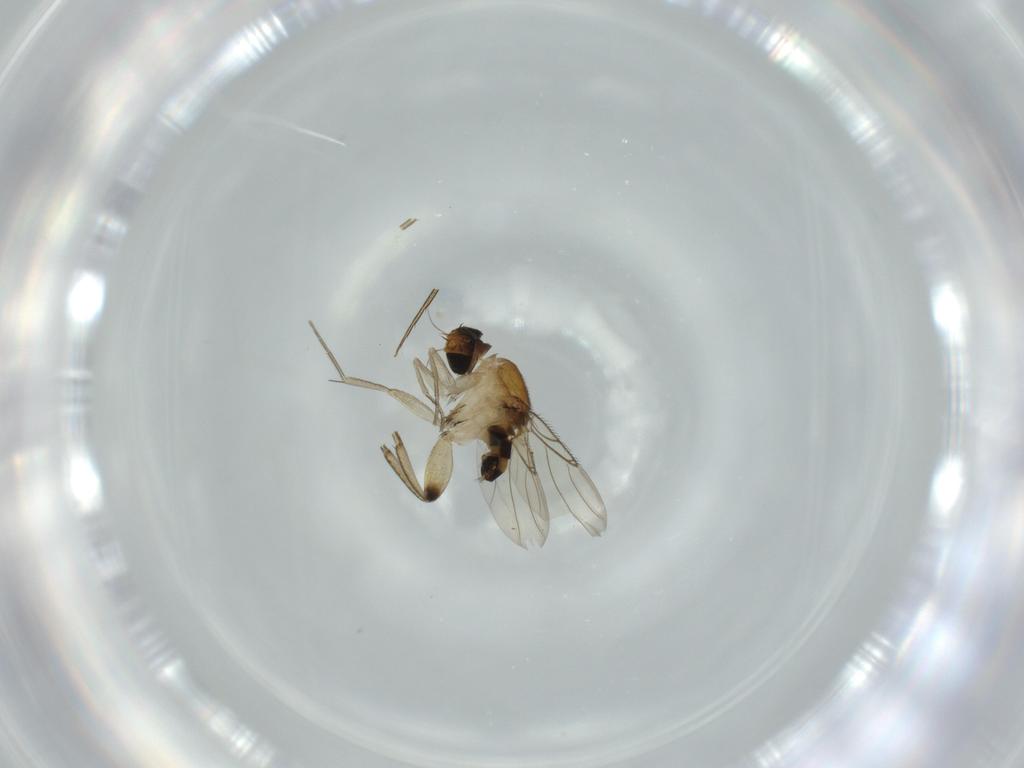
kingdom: Animalia
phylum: Arthropoda
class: Insecta
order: Diptera
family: Phoridae
